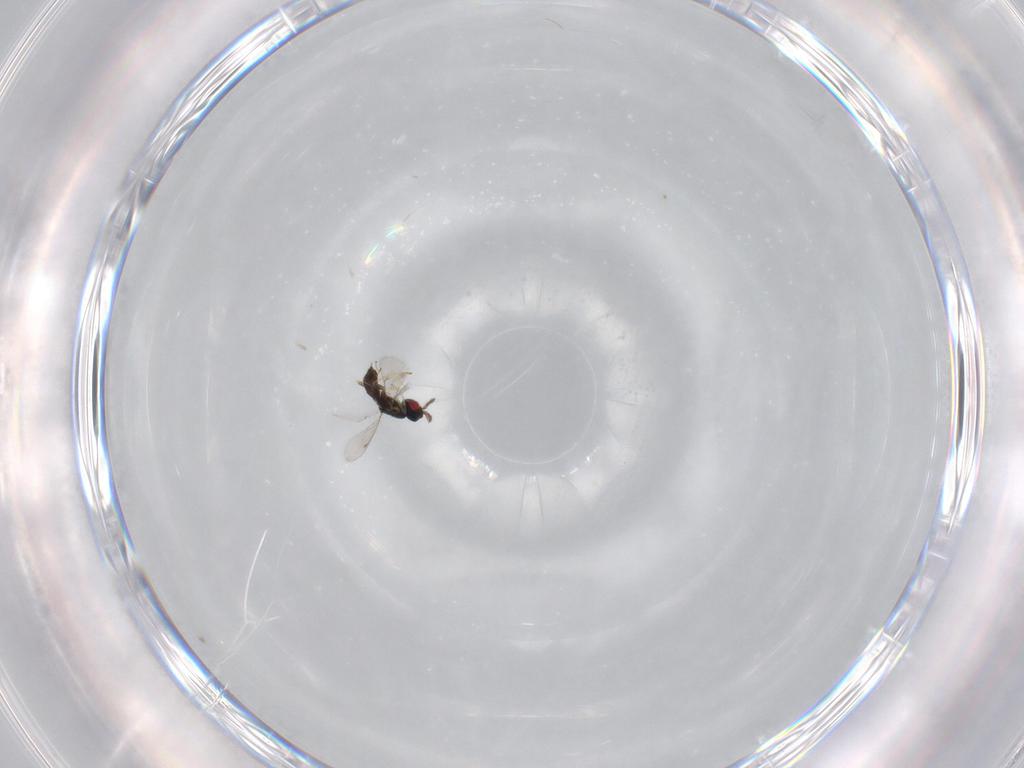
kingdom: Animalia
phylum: Arthropoda
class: Insecta
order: Hymenoptera
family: Eulophidae
